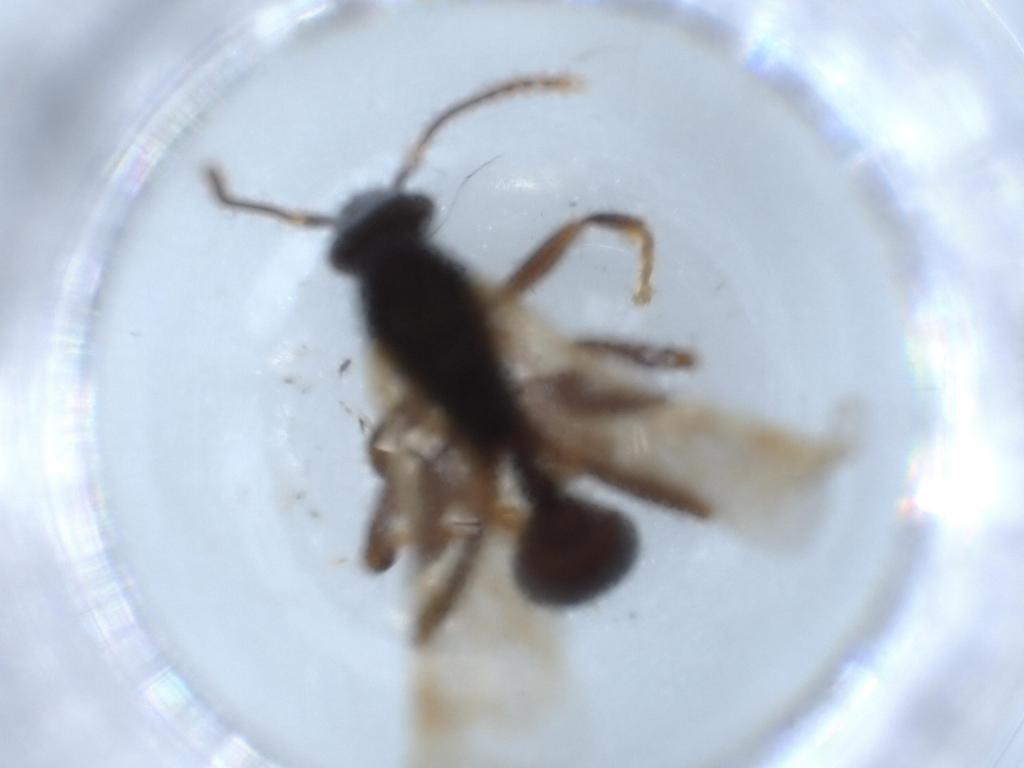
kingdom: Animalia
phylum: Arthropoda
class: Insecta
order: Hymenoptera
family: Formicidae
